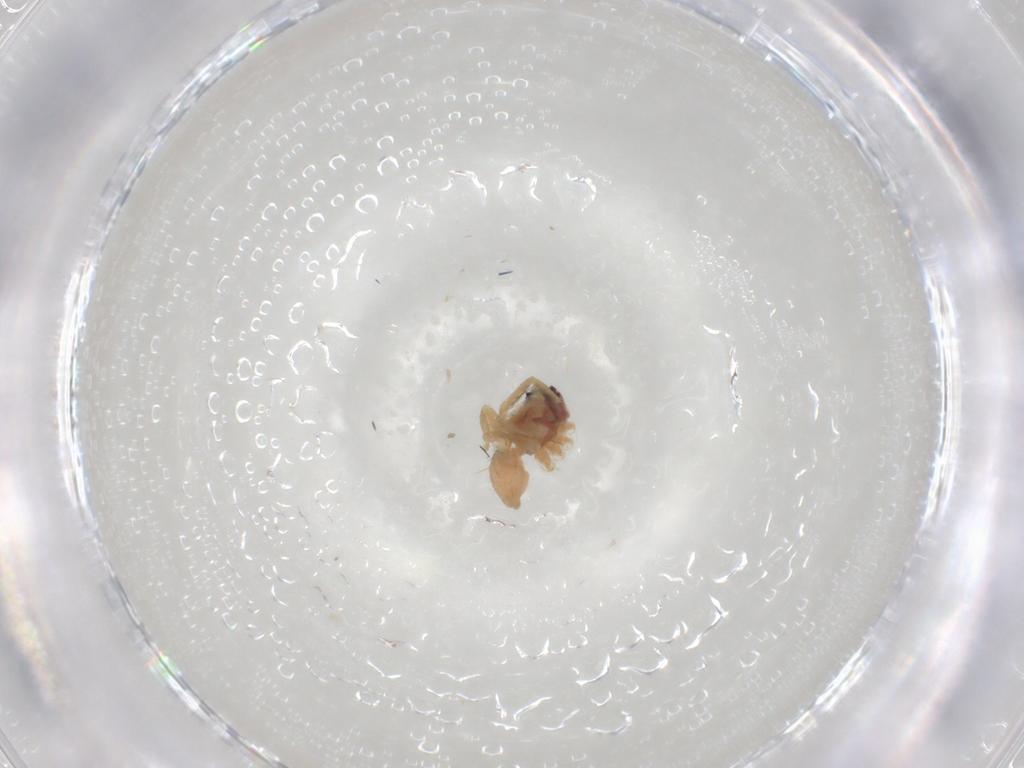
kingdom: Animalia
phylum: Arthropoda
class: Arachnida
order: Araneae
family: Lycosidae
